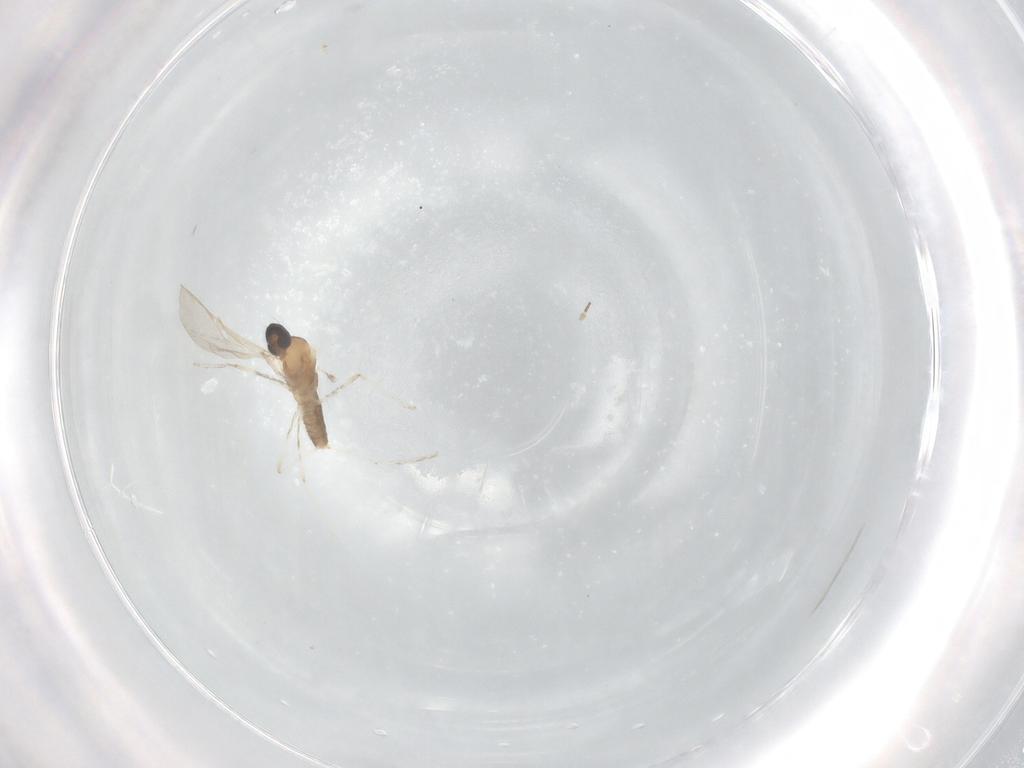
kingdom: Animalia
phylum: Arthropoda
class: Insecta
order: Diptera
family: Cecidomyiidae
